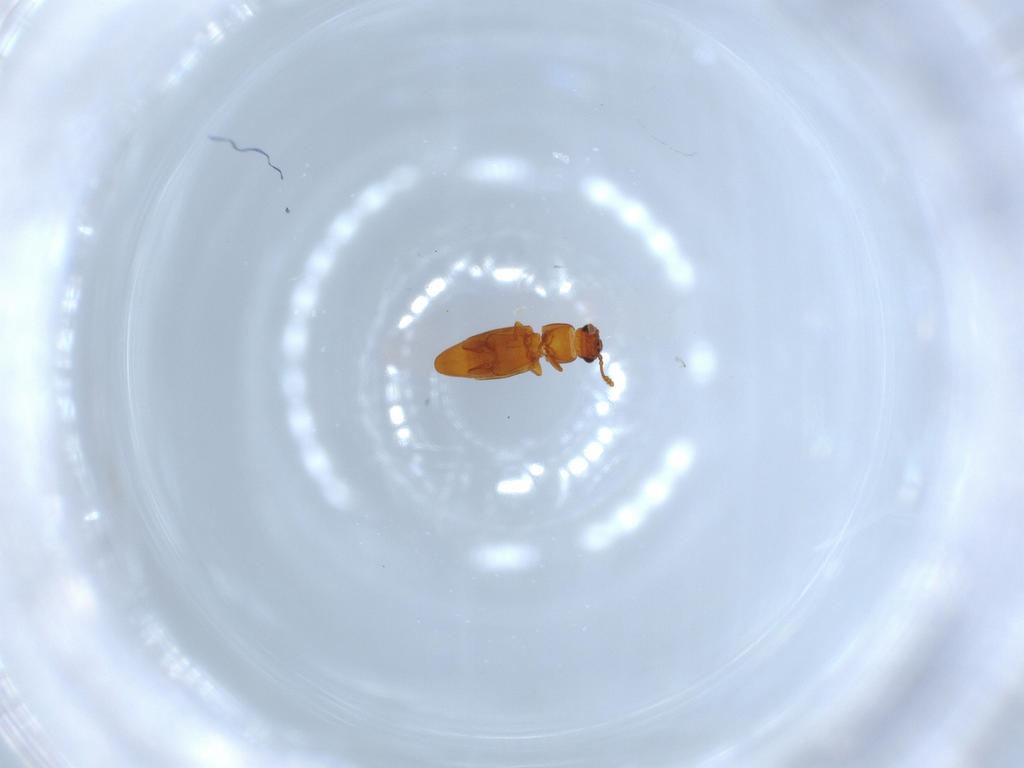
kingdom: Animalia
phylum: Arthropoda
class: Insecta
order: Coleoptera
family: Smicripidae
